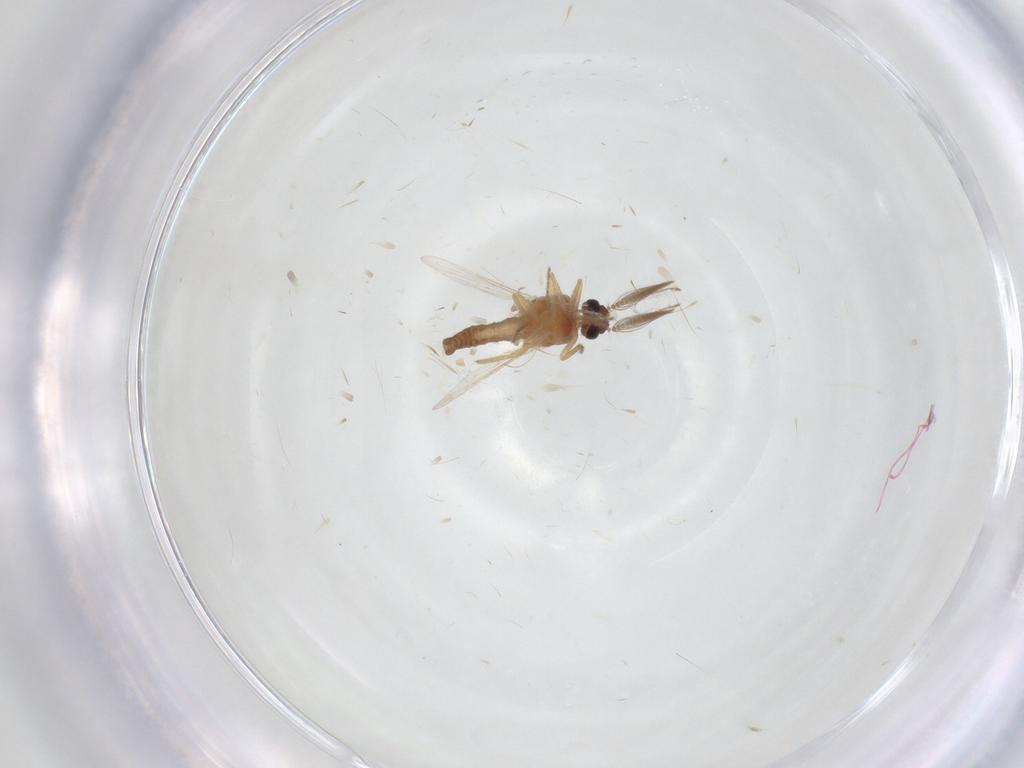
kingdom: Animalia
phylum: Arthropoda
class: Insecta
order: Diptera
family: Ceratopogonidae
